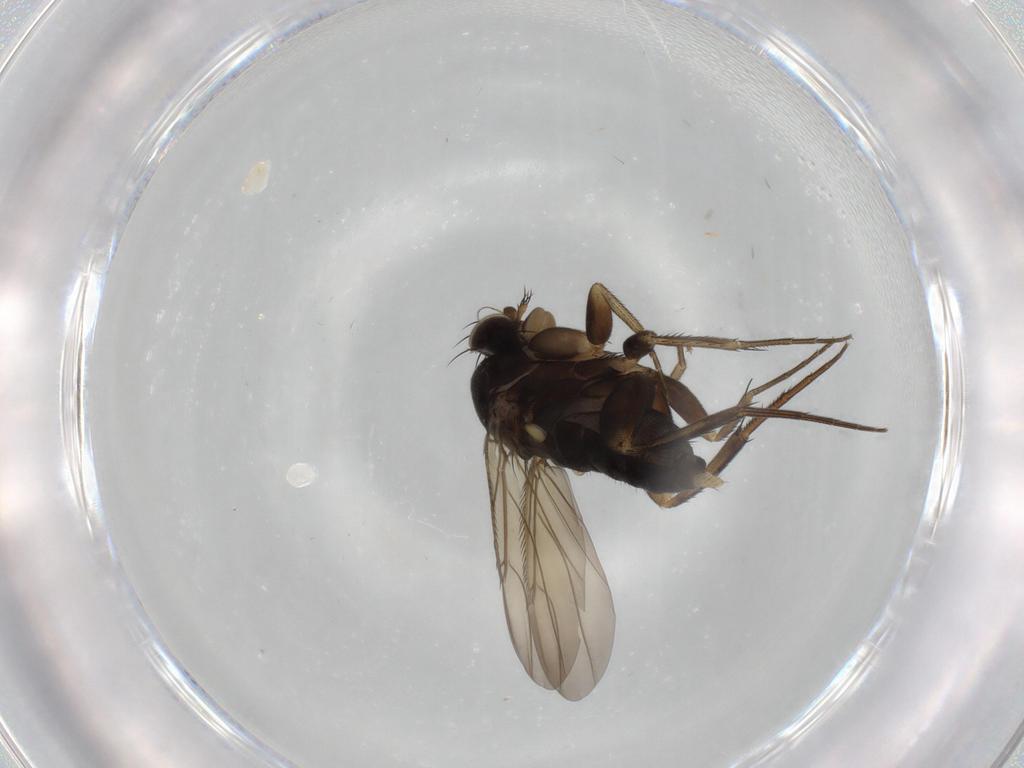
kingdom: Animalia
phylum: Arthropoda
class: Insecta
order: Diptera
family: Phoridae
